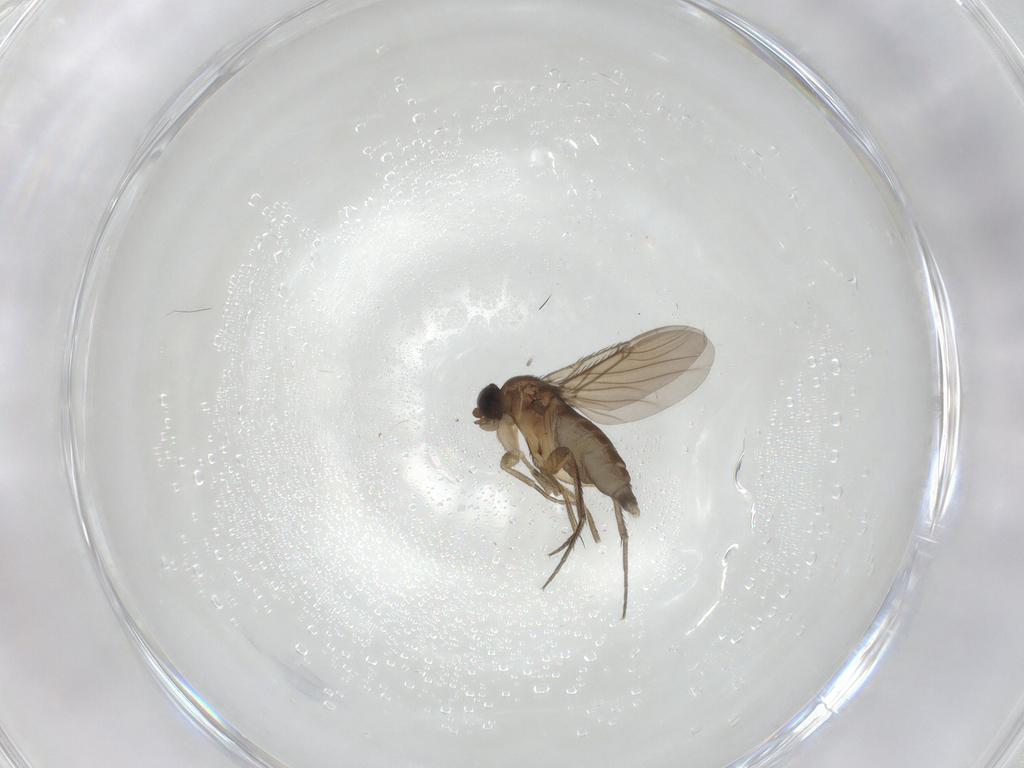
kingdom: Animalia
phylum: Arthropoda
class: Insecta
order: Diptera
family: Phoridae
